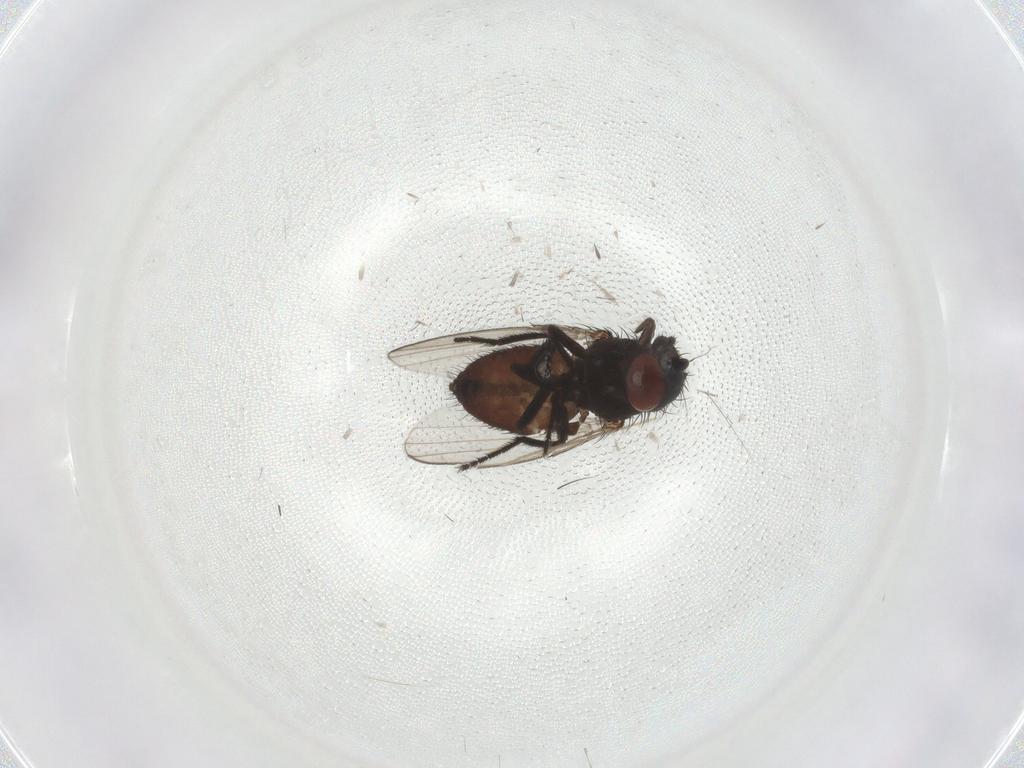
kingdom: Animalia
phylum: Arthropoda
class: Insecta
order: Diptera
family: Milichiidae
